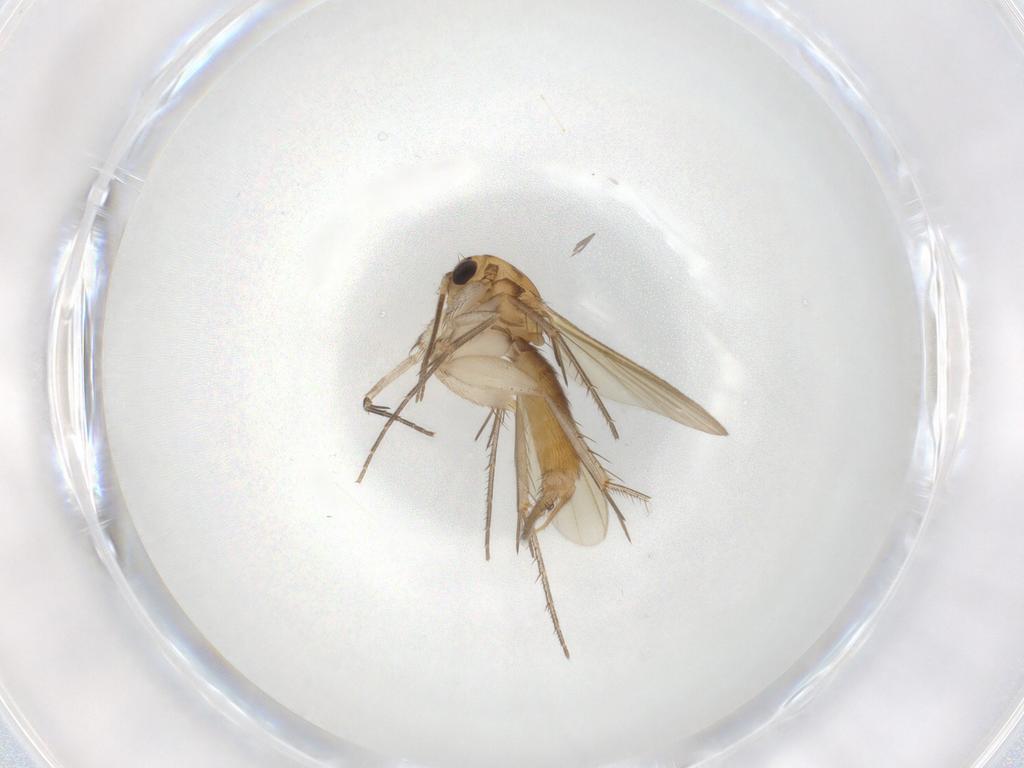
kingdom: Animalia
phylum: Arthropoda
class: Insecta
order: Diptera
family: Mycetophilidae
